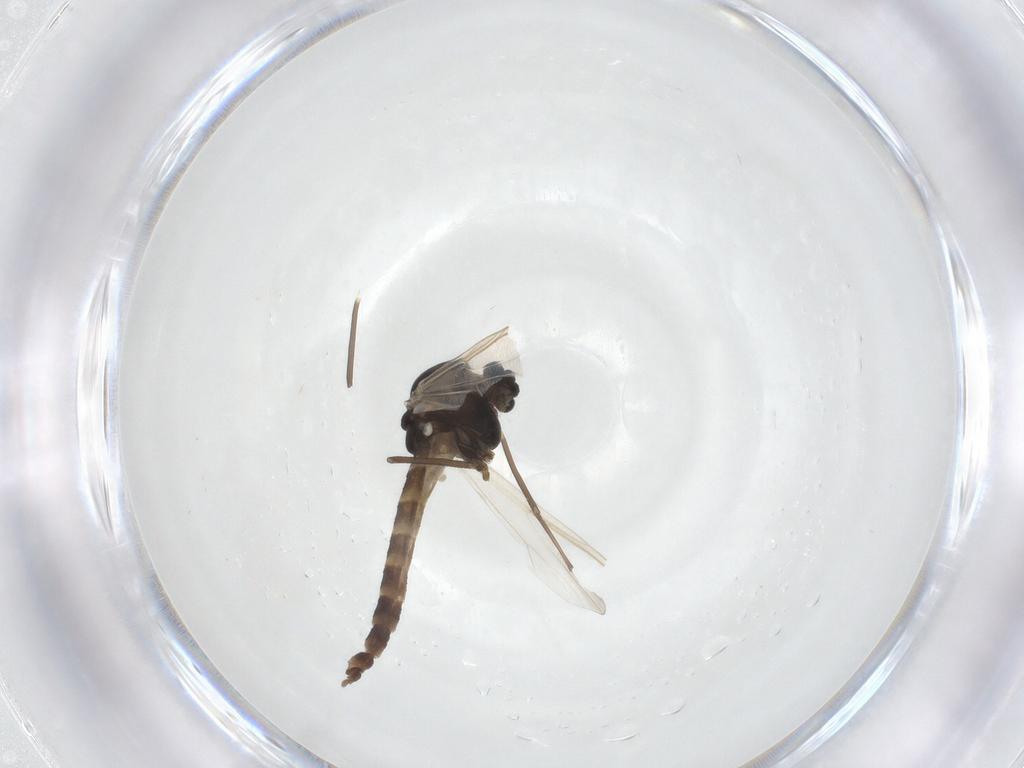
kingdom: Animalia
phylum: Arthropoda
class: Insecta
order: Diptera
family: Chironomidae
